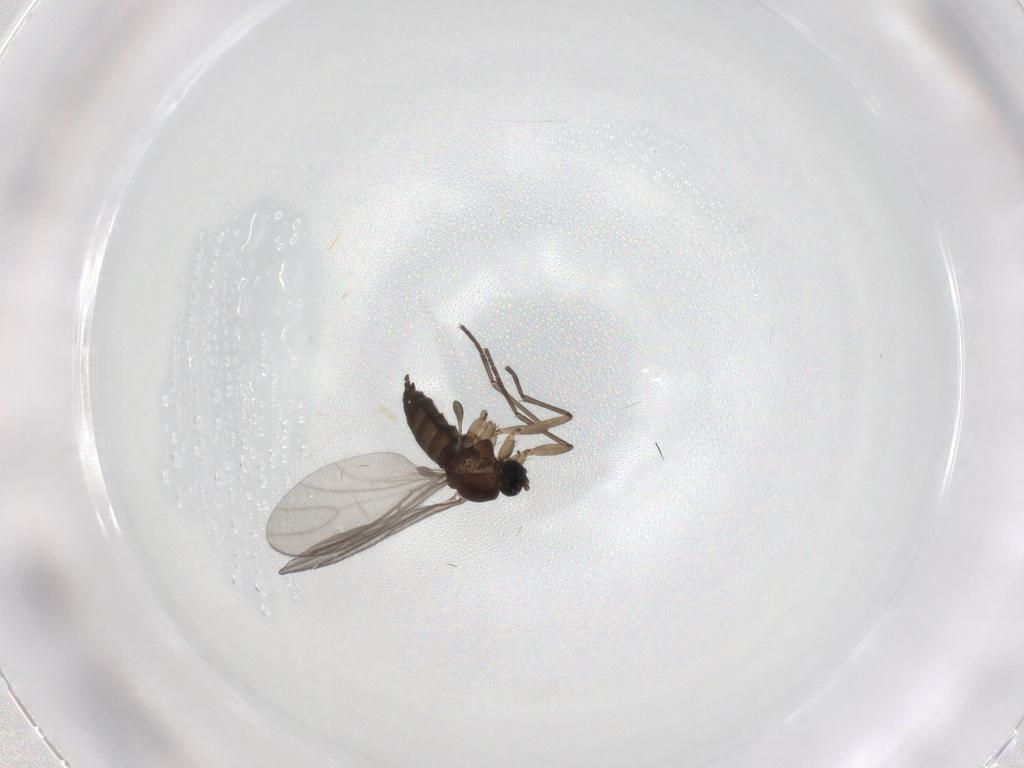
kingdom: Animalia
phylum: Arthropoda
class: Insecta
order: Diptera
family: Sciaridae
